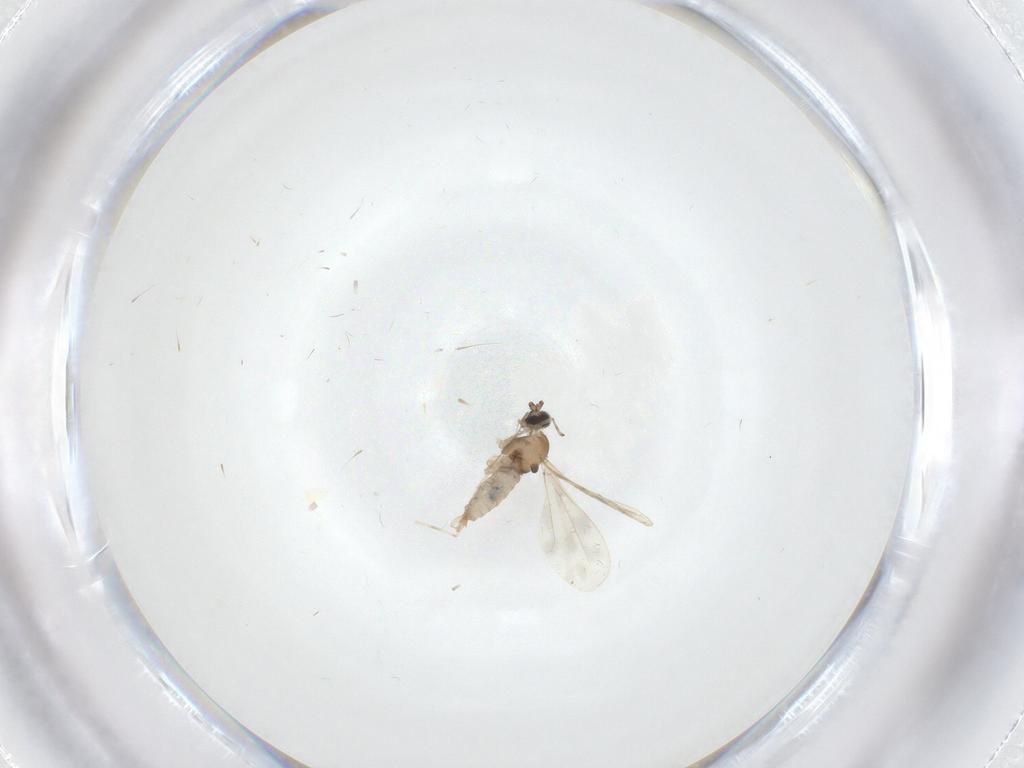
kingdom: Animalia
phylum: Arthropoda
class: Insecta
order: Diptera
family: Cecidomyiidae
